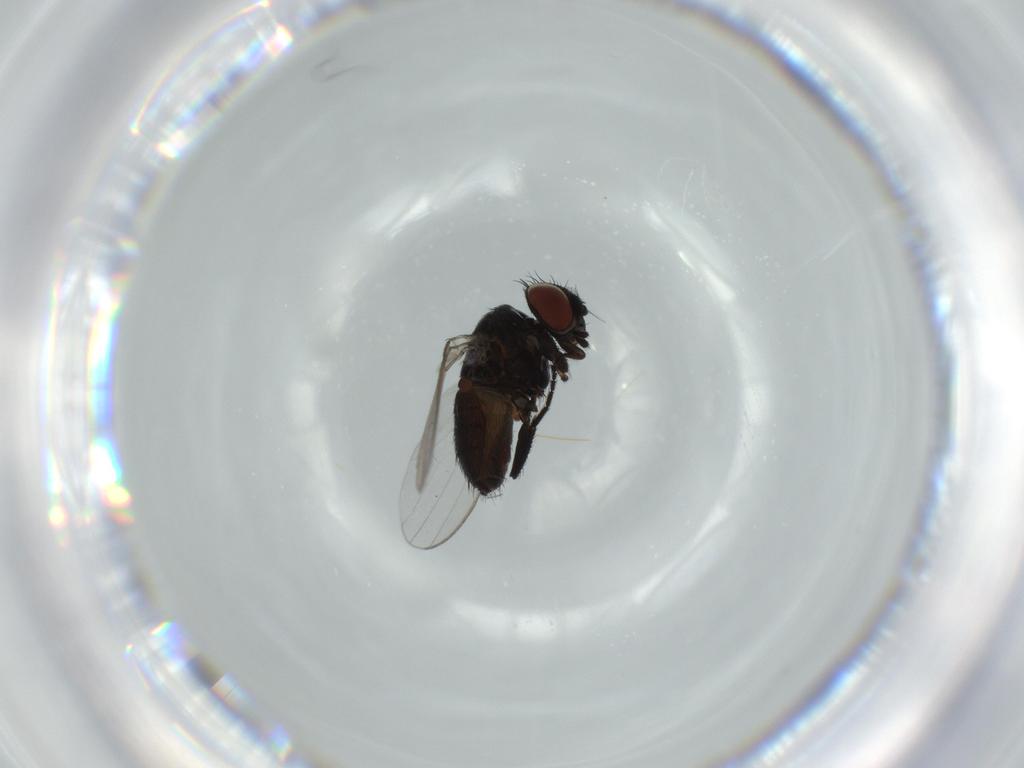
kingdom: Animalia
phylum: Arthropoda
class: Insecta
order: Diptera
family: Milichiidae
